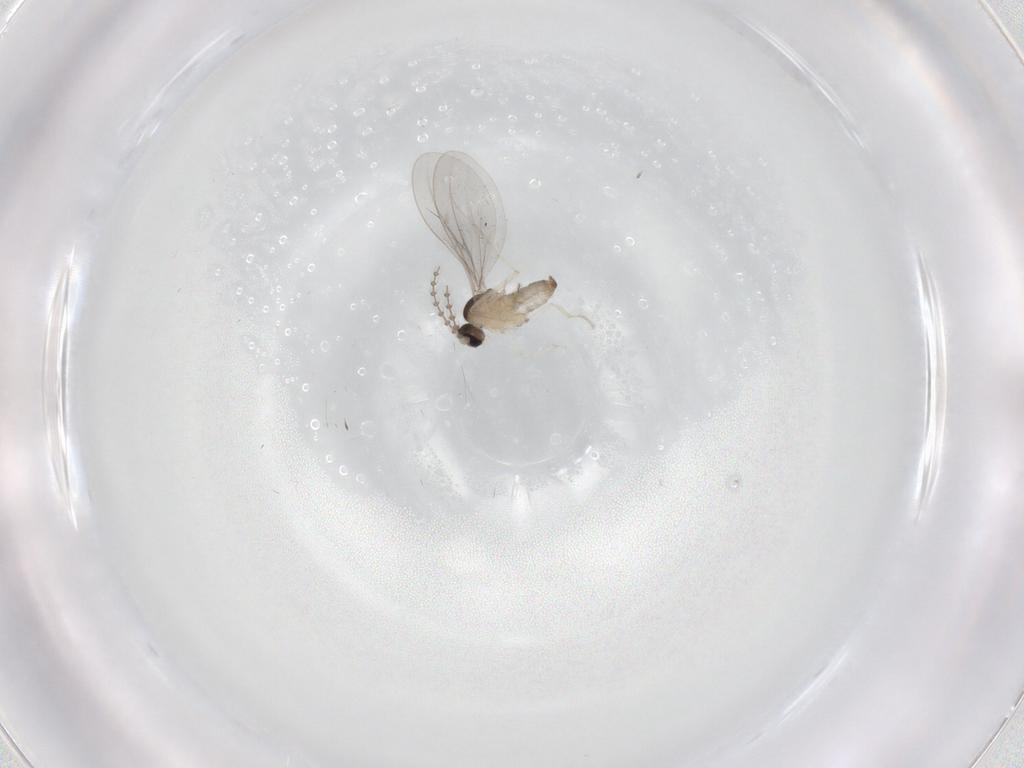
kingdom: Animalia
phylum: Arthropoda
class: Insecta
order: Diptera
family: Cecidomyiidae
